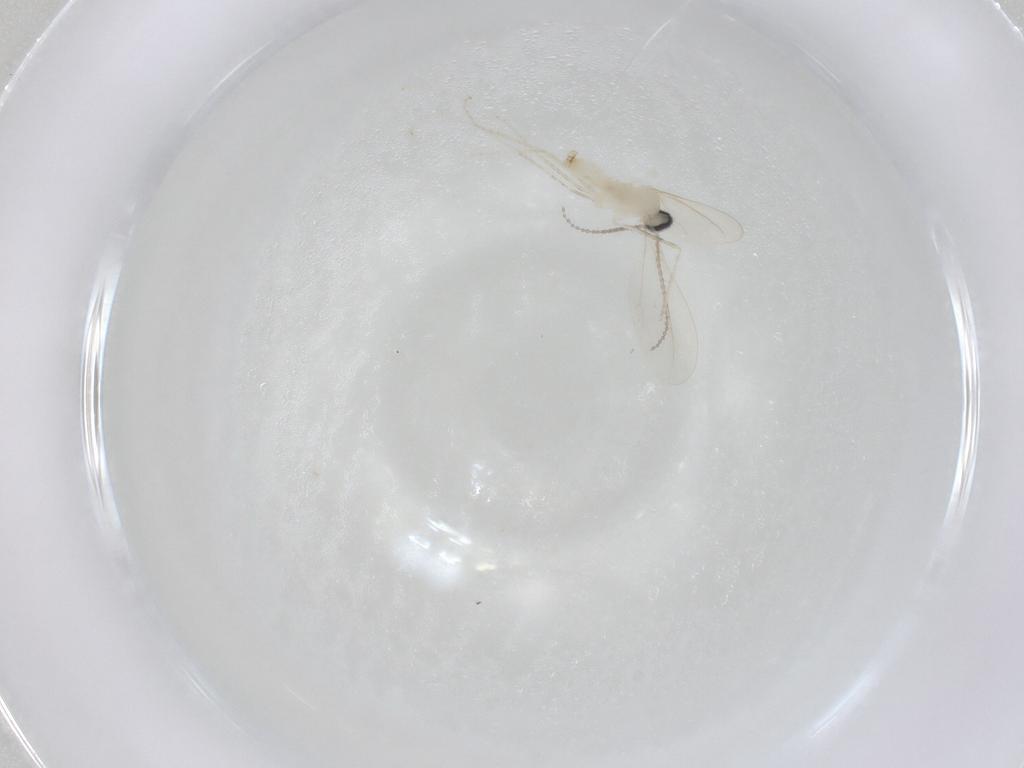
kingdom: Animalia
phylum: Arthropoda
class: Insecta
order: Diptera
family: Cecidomyiidae
